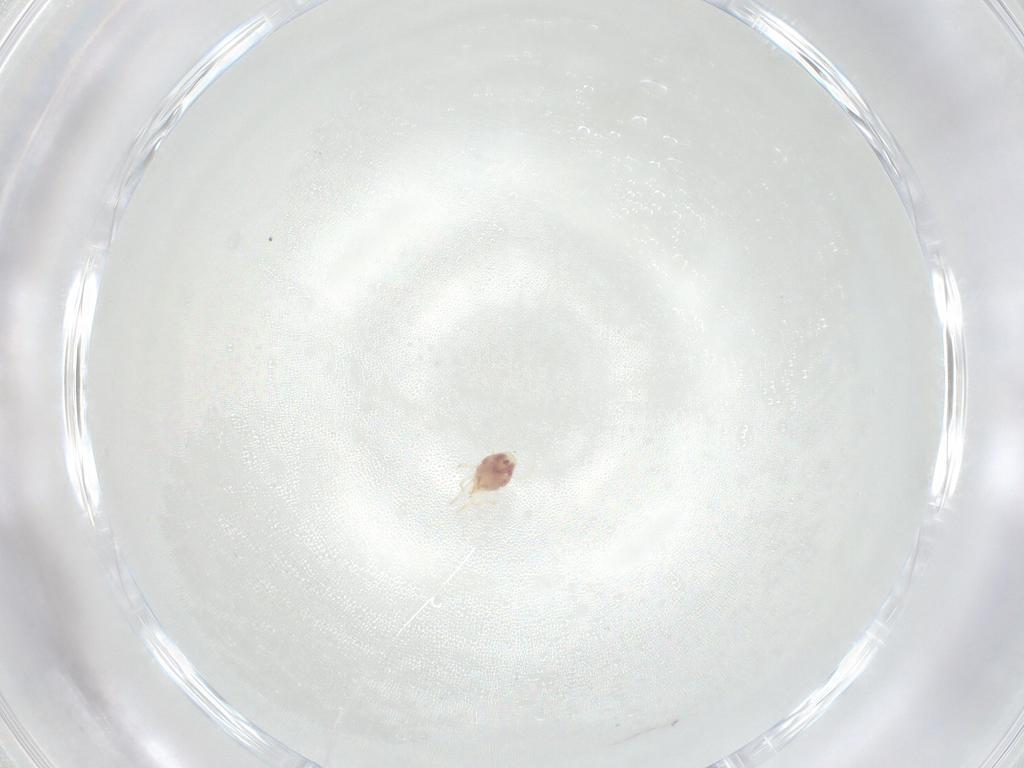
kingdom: Animalia
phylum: Arthropoda
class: Arachnida
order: Mesostigmata
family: Phytoseiidae
